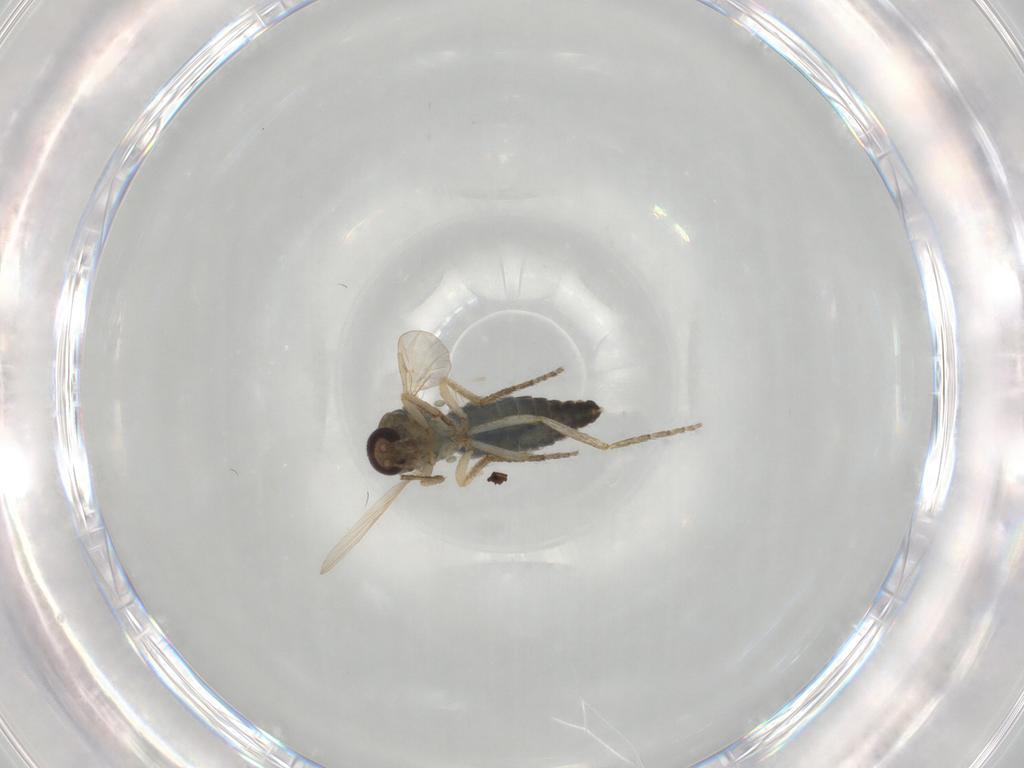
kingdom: Animalia
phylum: Arthropoda
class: Insecta
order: Diptera
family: Ceratopogonidae
